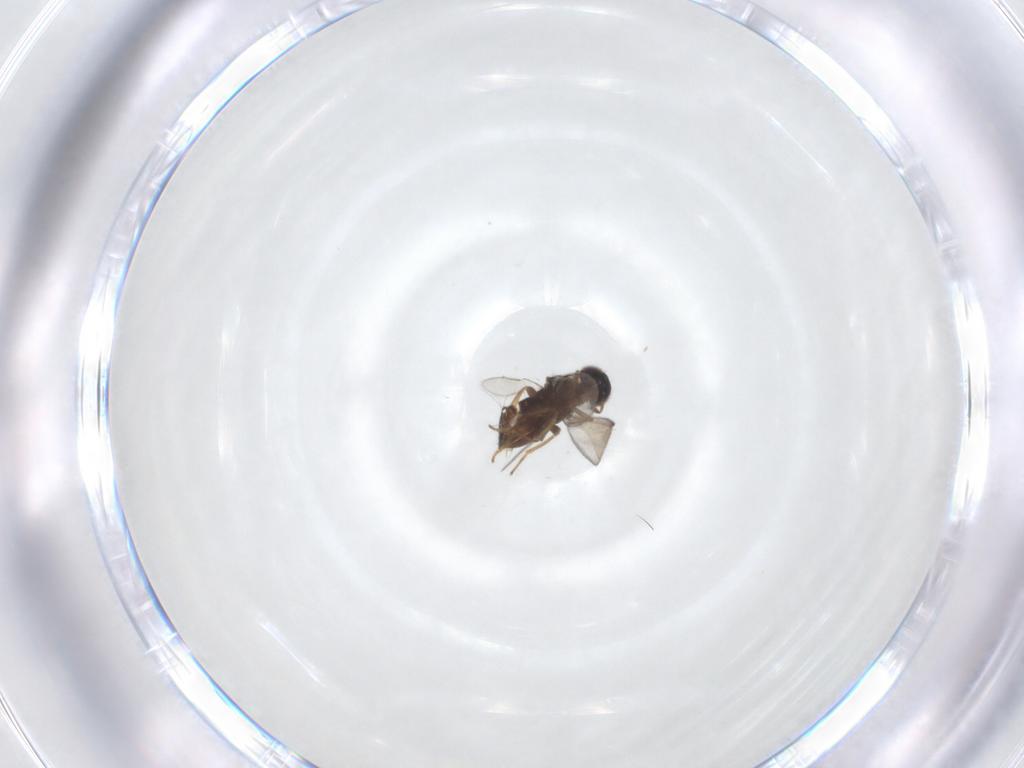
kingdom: Animalia
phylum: Arthropoda
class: Insecta
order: Hymenoptera
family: Encyrtidae
